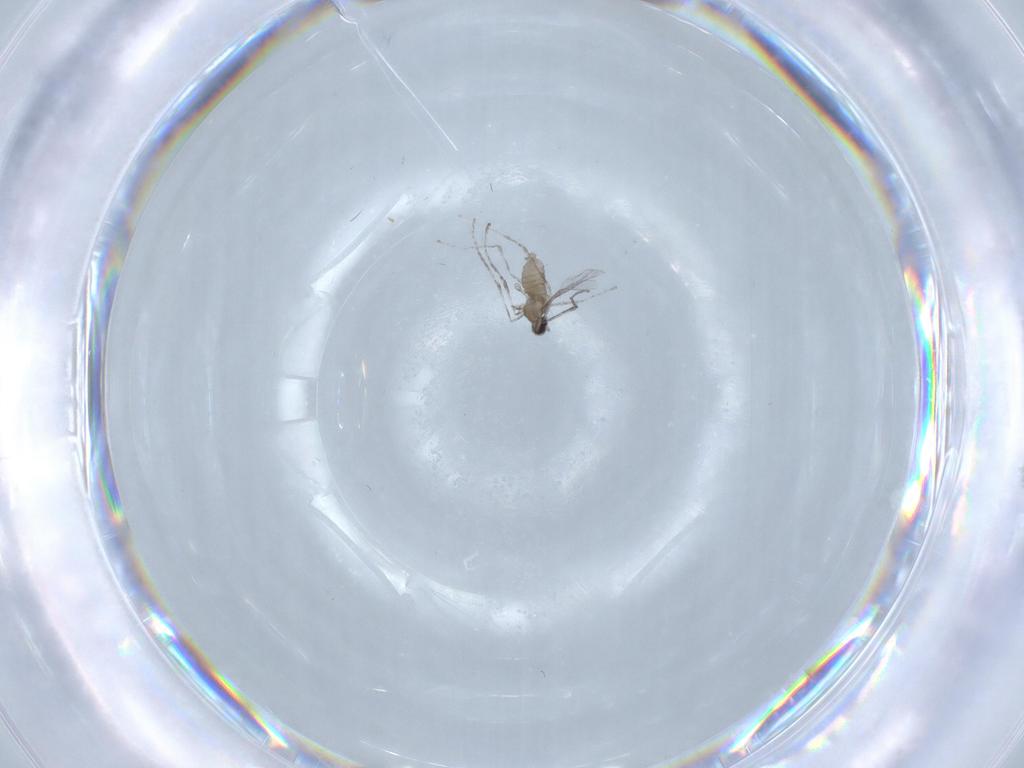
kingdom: Animalia
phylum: Arthropoda
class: Insecta
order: Diptera
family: Cecidomyiidae
